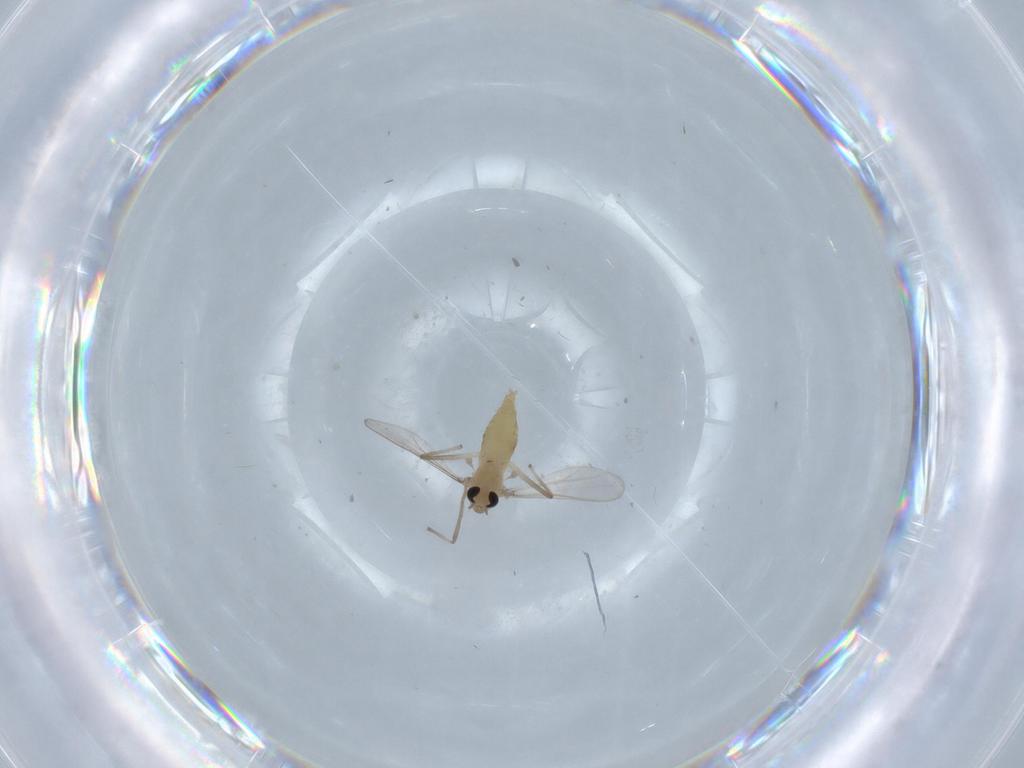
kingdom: Animalia
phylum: Arthropoda
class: Insecta
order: Diptera
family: Chironomidae
